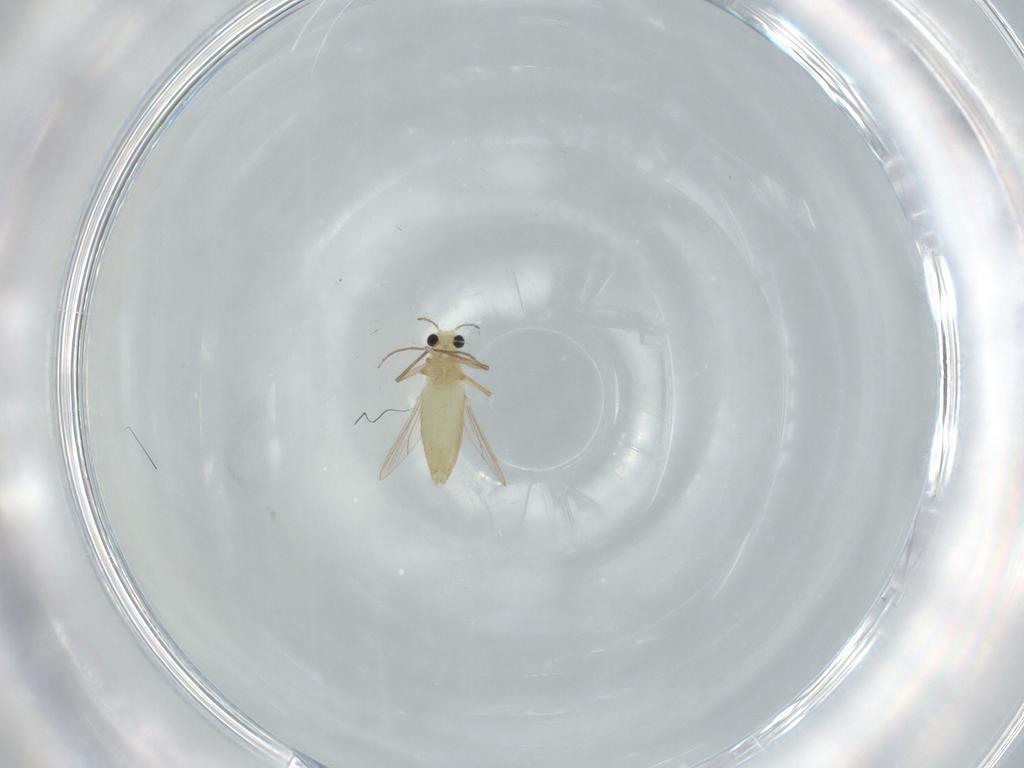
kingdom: Animalia
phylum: Arthropoda
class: Insecta
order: Diptera
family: Chironomidae
